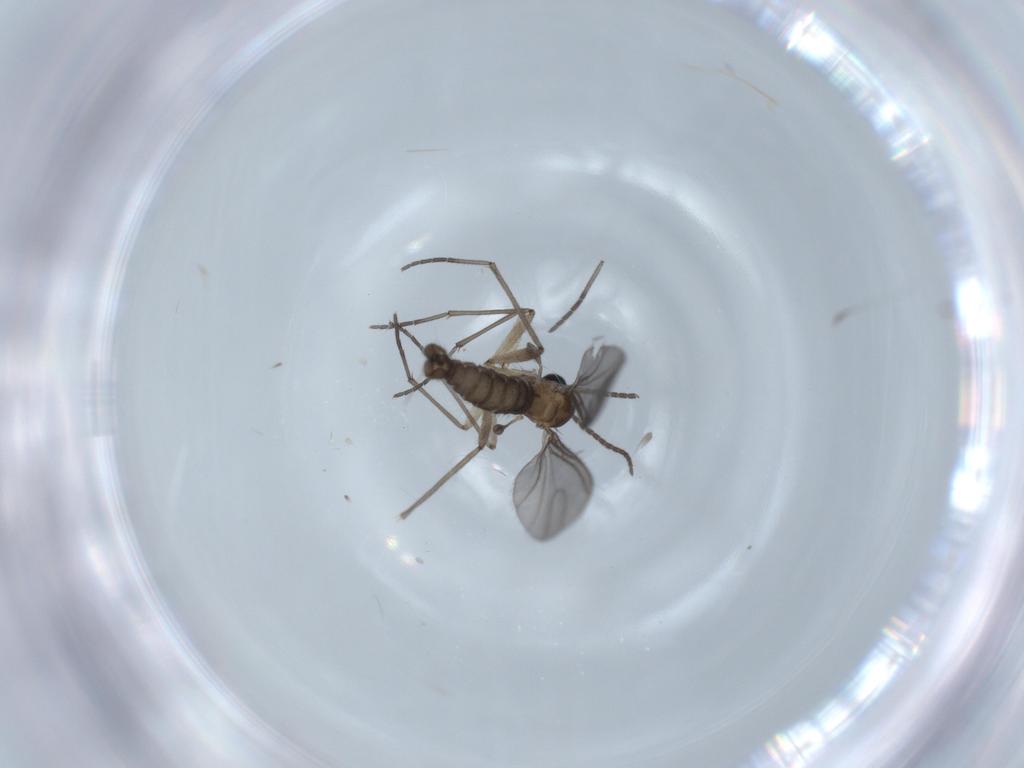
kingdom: Animalia
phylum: Arthropoda
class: Insecta
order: Diptera
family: Sciaridae
